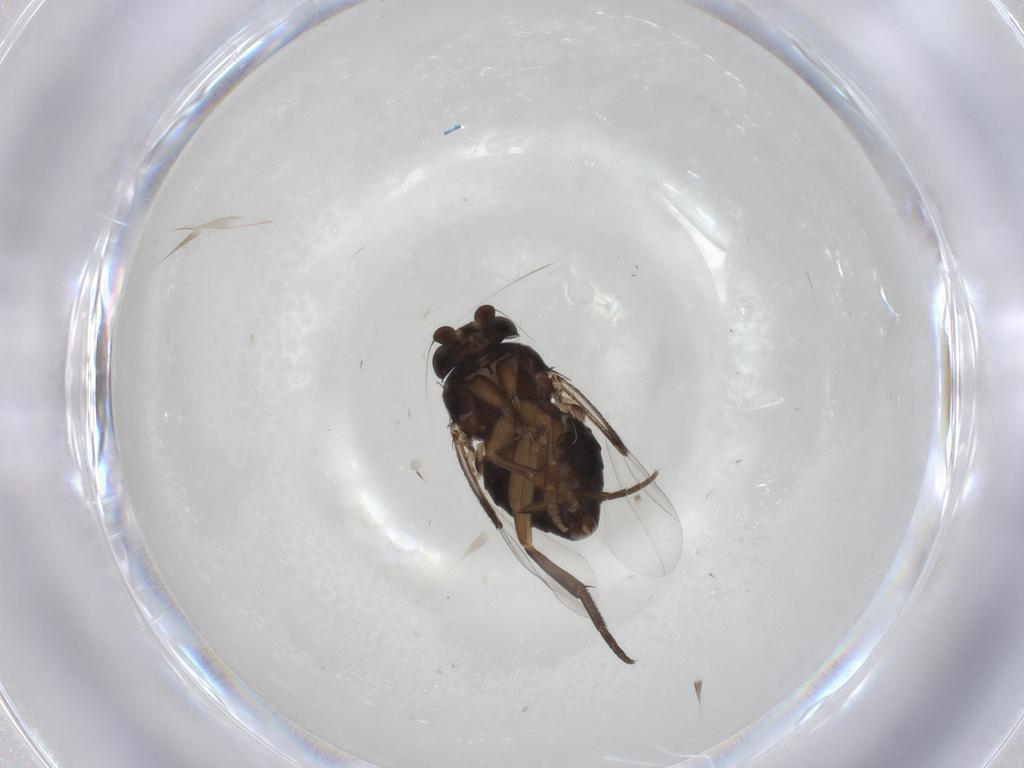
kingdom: Animalia
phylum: Arthropoda
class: Insecta
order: Diptera
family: Phoridae
